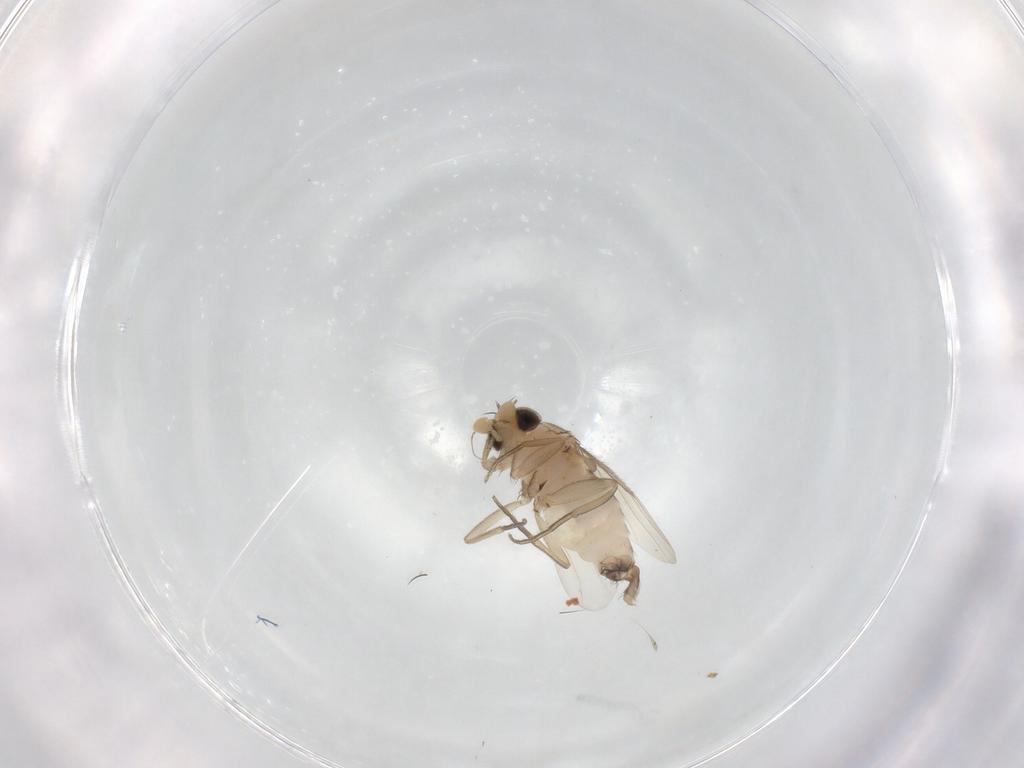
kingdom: Animalia
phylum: Arthropoda
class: Insecta
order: Diptera
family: Phoridae
